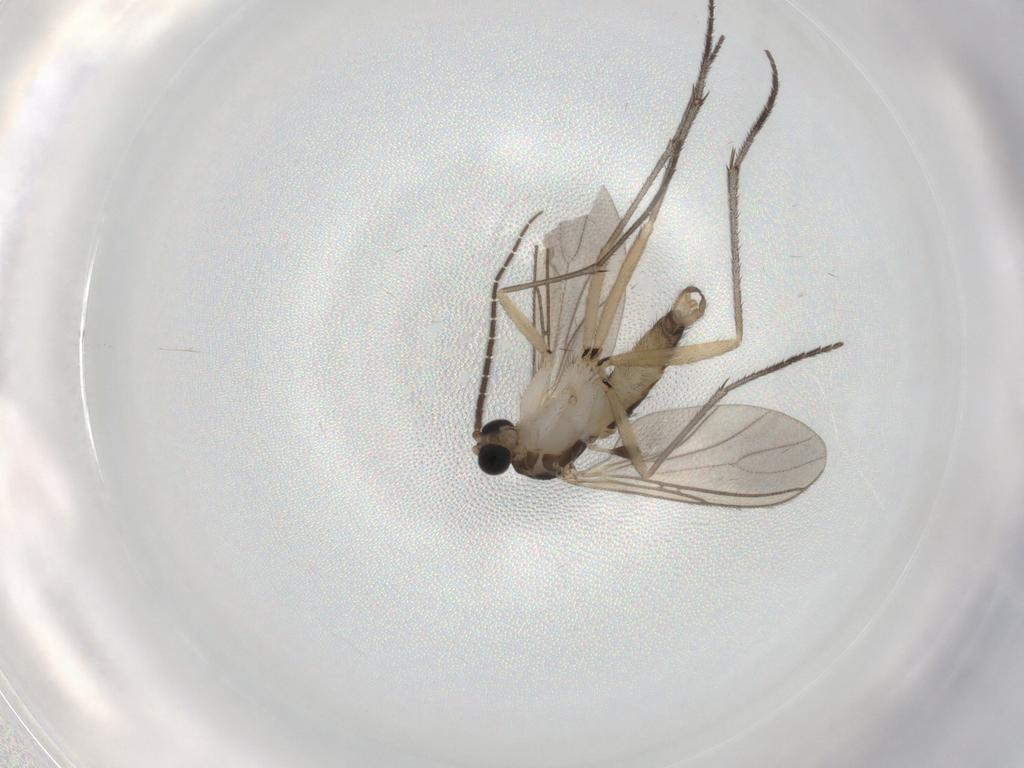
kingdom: Animalia
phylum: Arthropoda
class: Insecta
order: Diptera
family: Sciaridae
